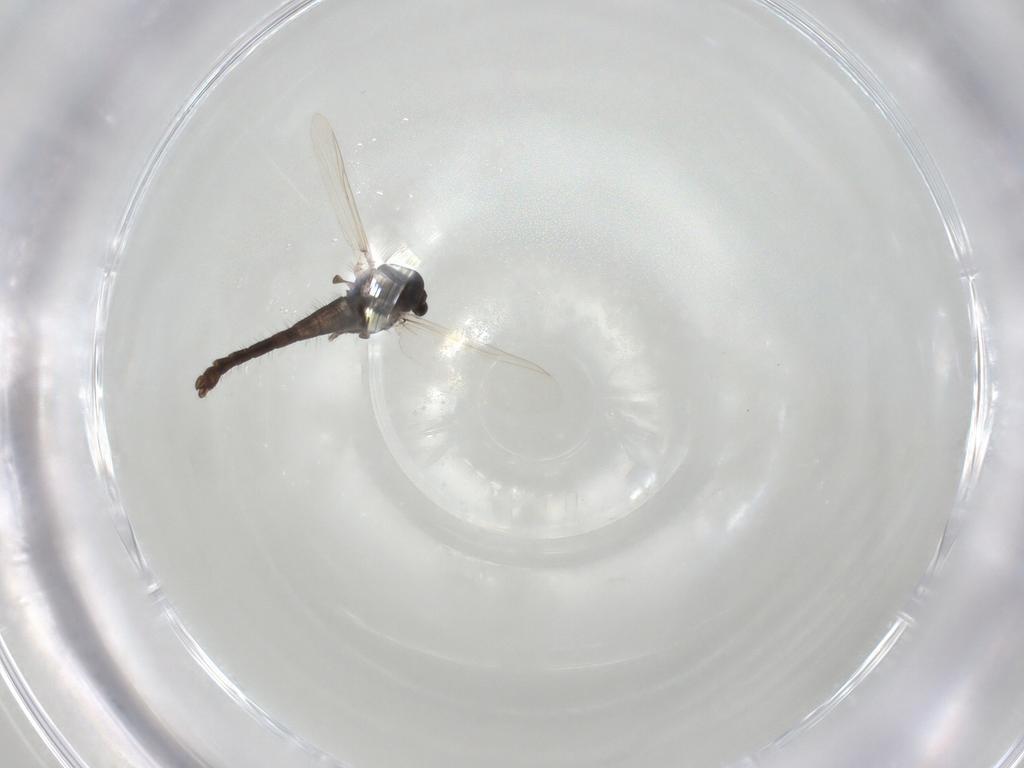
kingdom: Animalia
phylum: Arthropoda
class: Insecta
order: Diptera
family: Chironomidae
